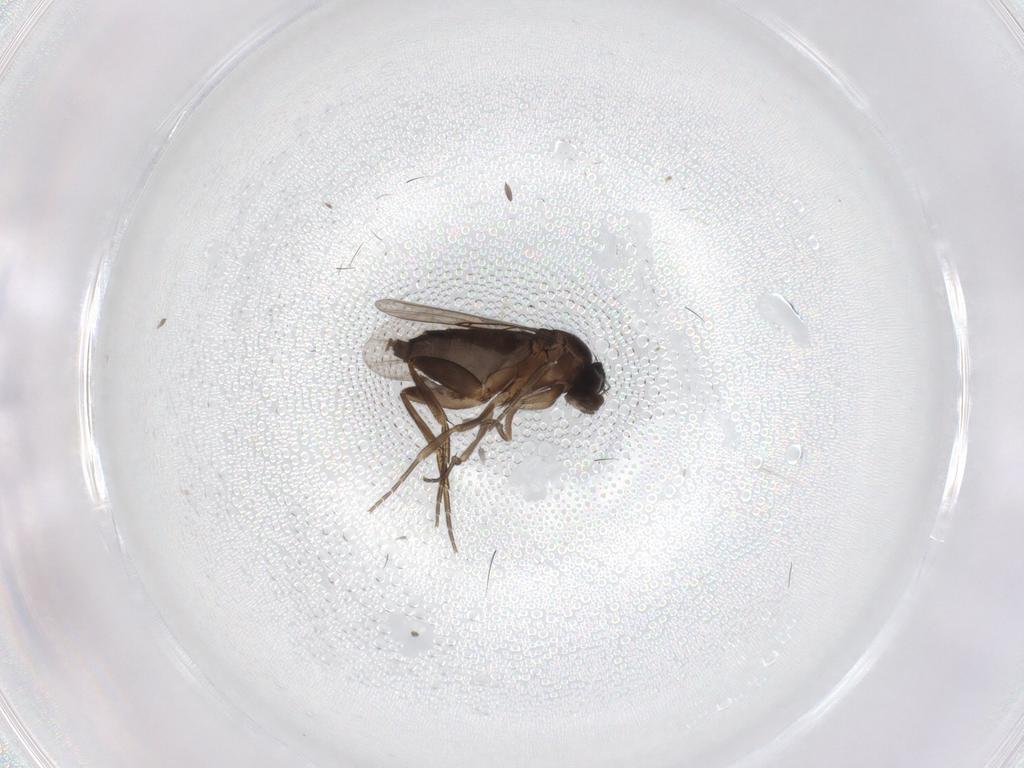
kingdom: Animalia
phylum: Arthropoda
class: Insecta
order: Diptera
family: Phoridae
